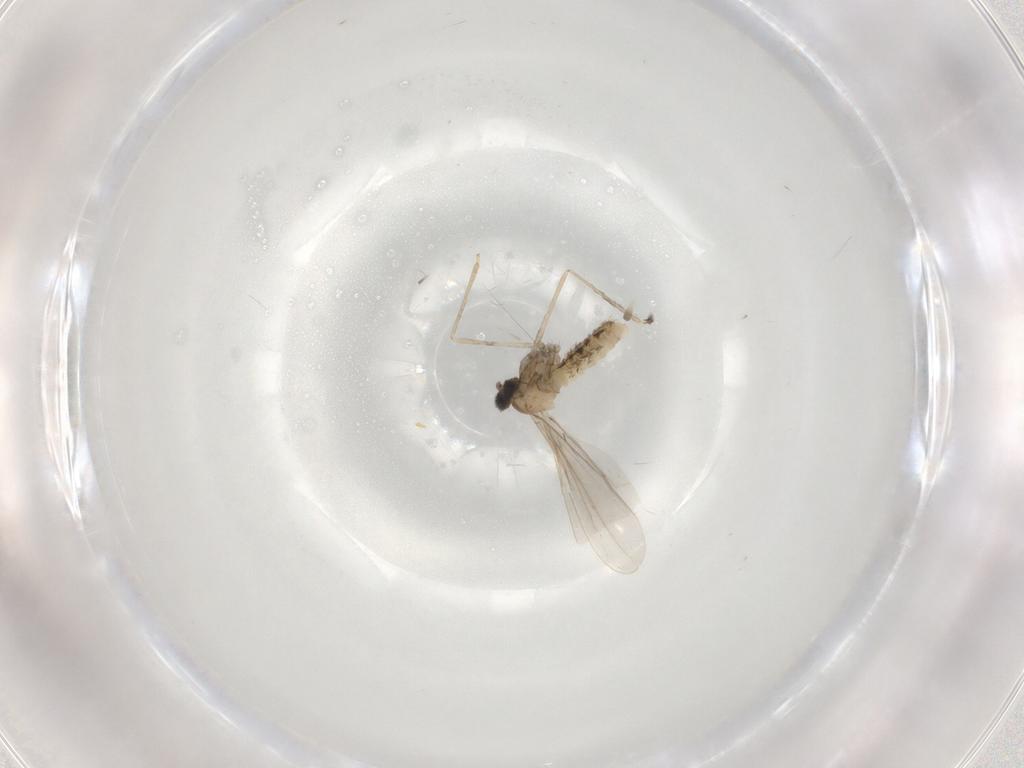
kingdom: Animalia
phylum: Arthropoda
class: Insecta
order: Diptera
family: Cecidomyiidae
